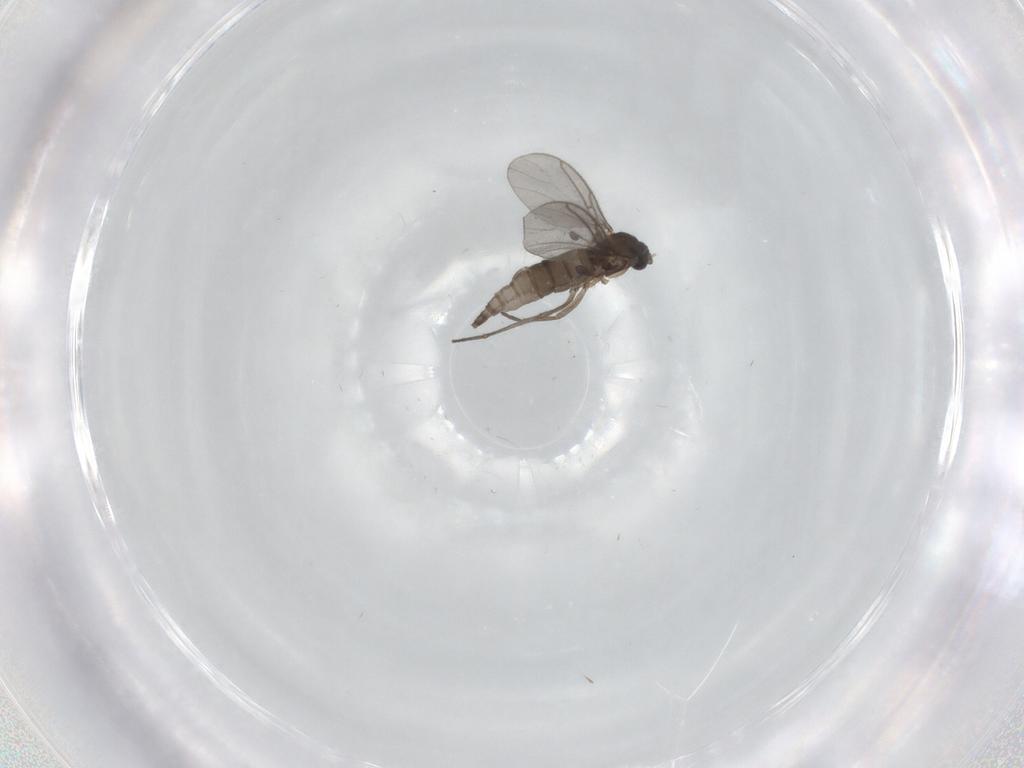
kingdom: Animalia
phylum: Arthropoda
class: Insecta
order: Diptera
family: Sciaridae
